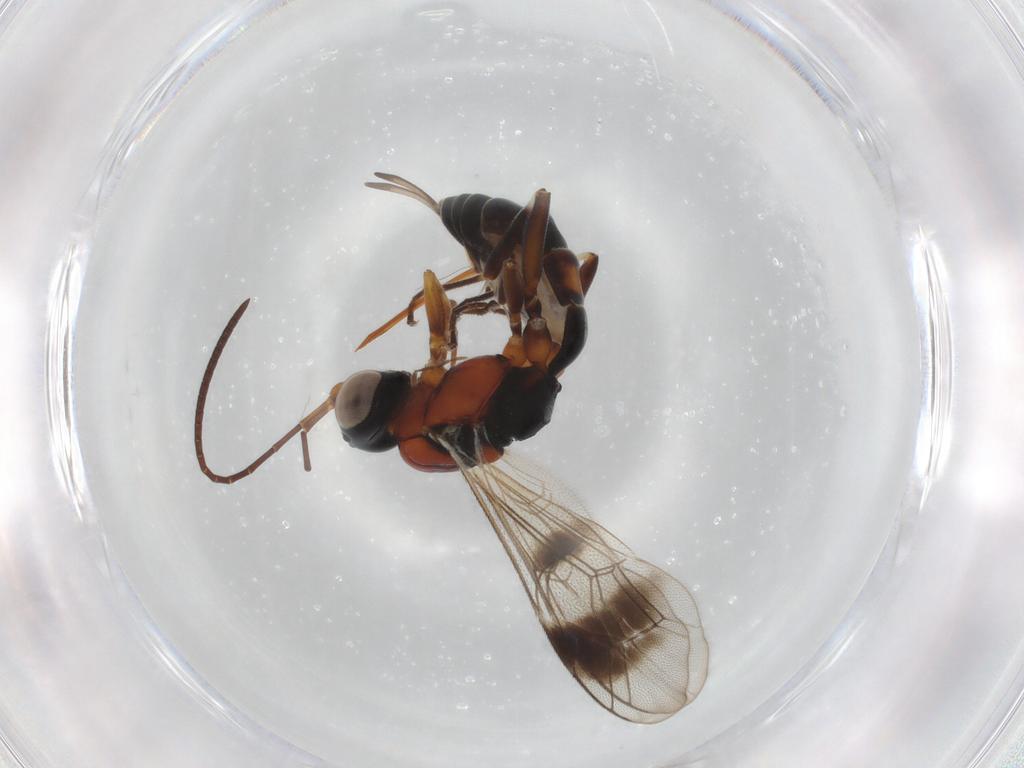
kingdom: Animalia
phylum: Arthropoda
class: Insecta
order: Hymenoptera
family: Ichneumonidae
